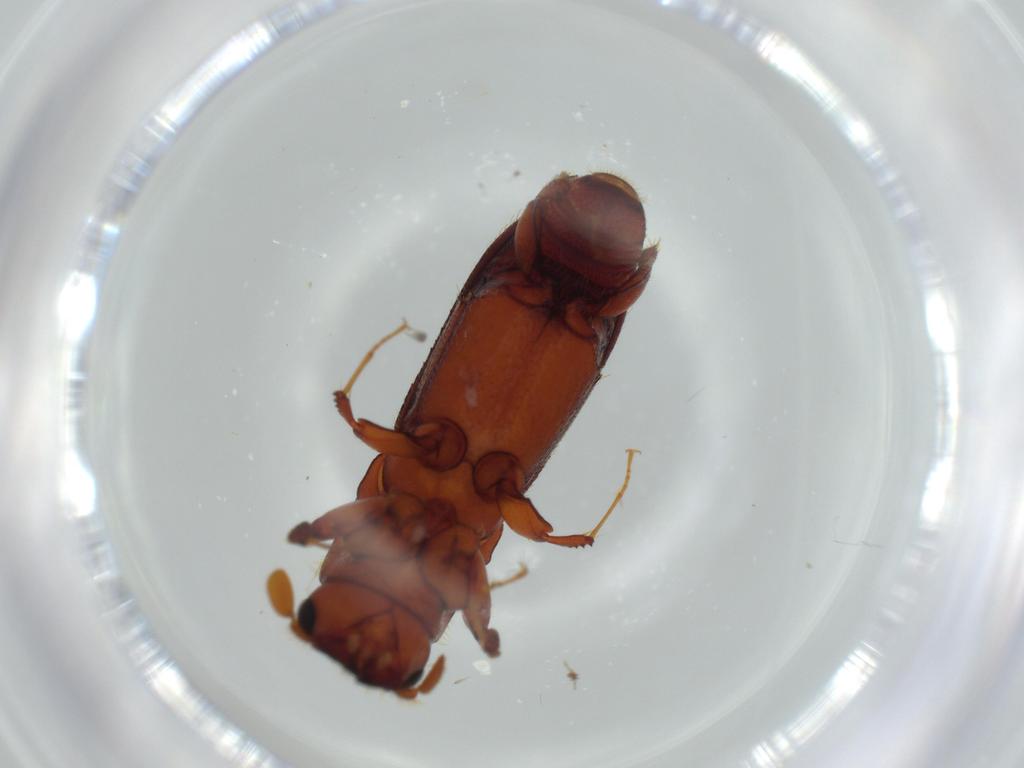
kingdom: Animalia
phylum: Arthropoda
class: Insecta
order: Coleoptera
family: Curculionidae
